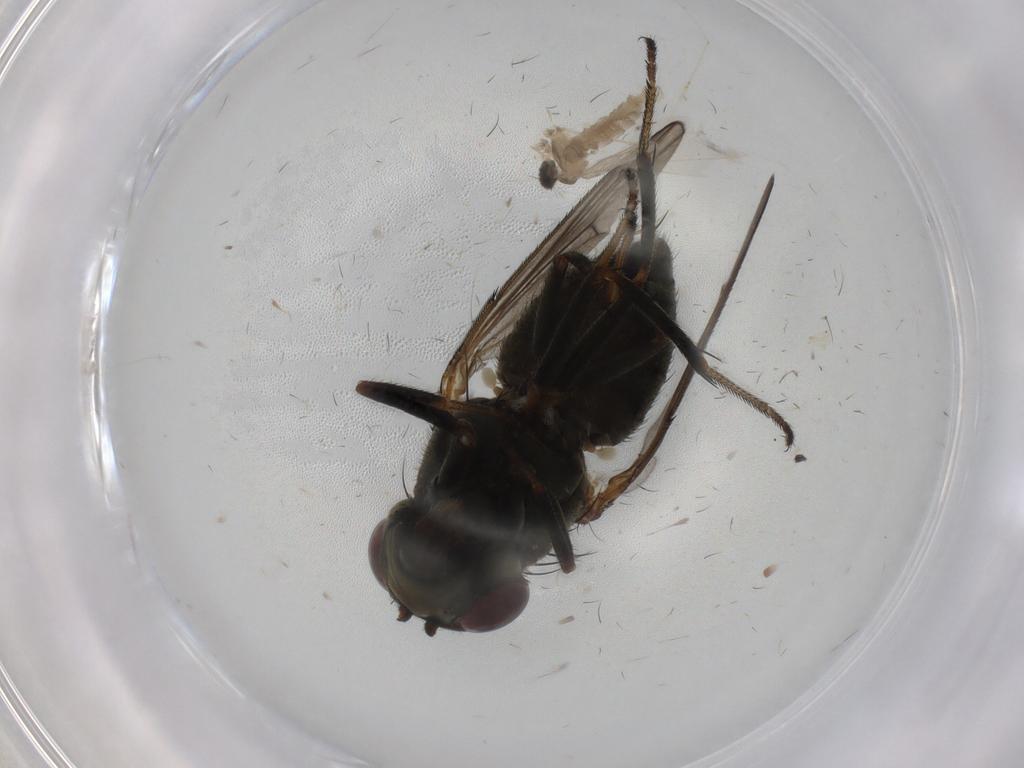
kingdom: Animalia
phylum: Arthropoda
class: Insecta
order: Diptera
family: Ephydridae
